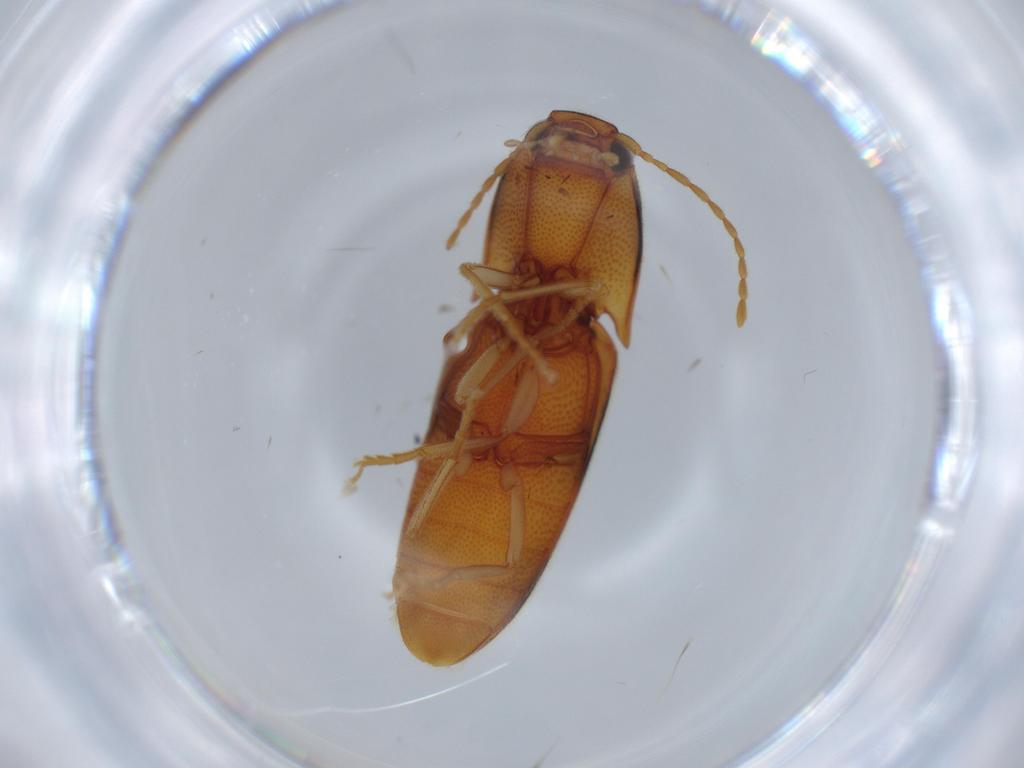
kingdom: Animalia
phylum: Arthropoda
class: Insecta
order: Coleoptera
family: Elateridae
